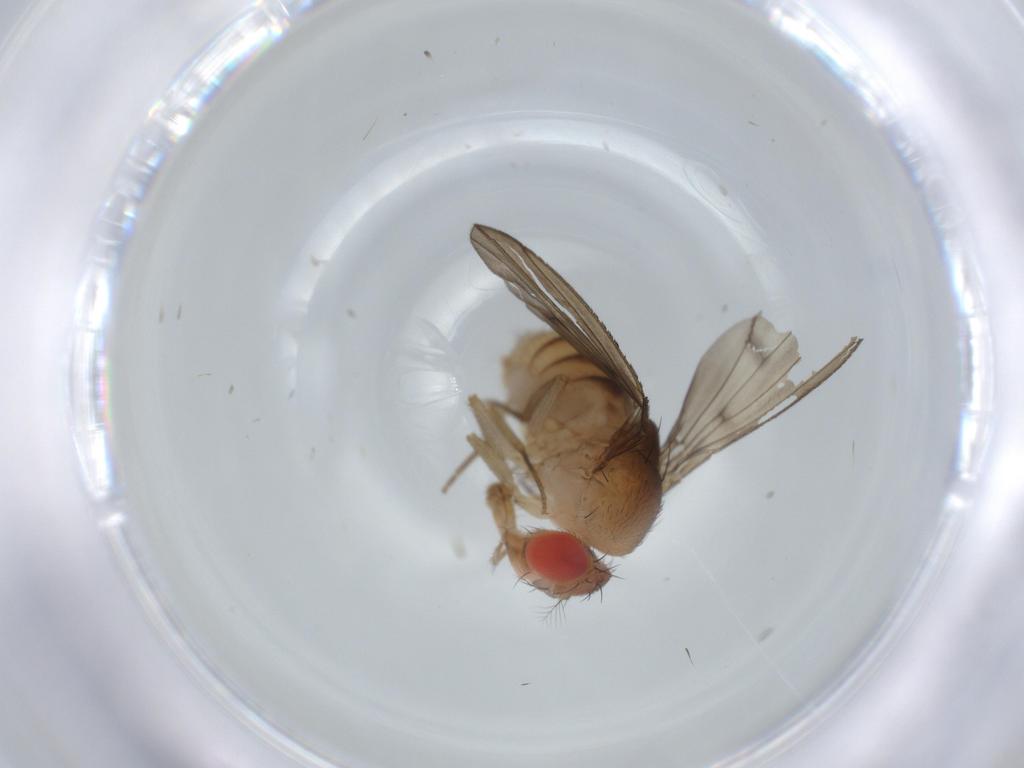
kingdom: Animalia
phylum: Arthropoda
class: Insecta
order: Diptera
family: Drosophilidae
